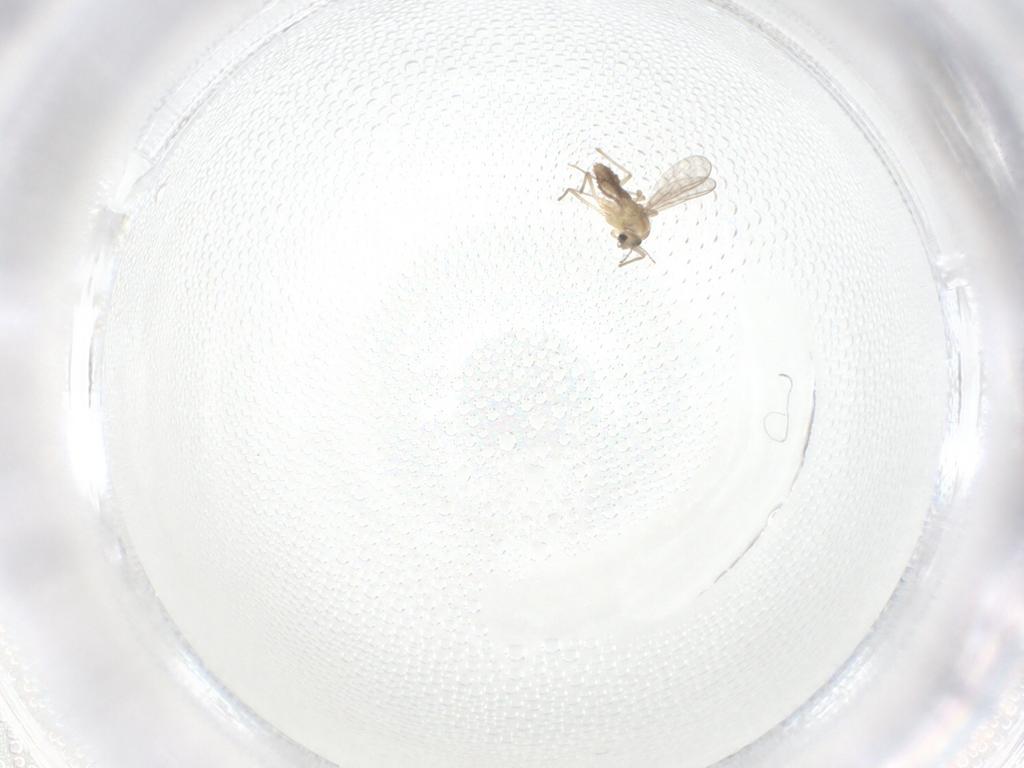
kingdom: Animalia
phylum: Arthropoda
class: Insecta
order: Diptera
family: Chironomidae
